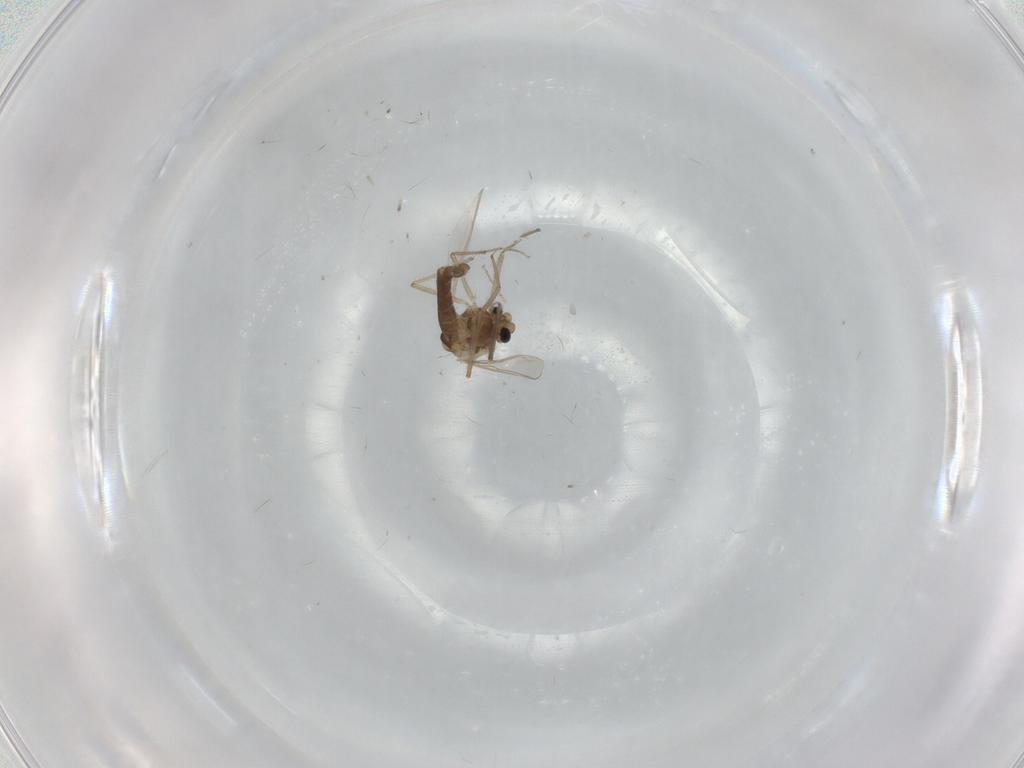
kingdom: Animalia
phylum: Arthropoda
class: Insecta
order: Diptera
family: Chironomidae
